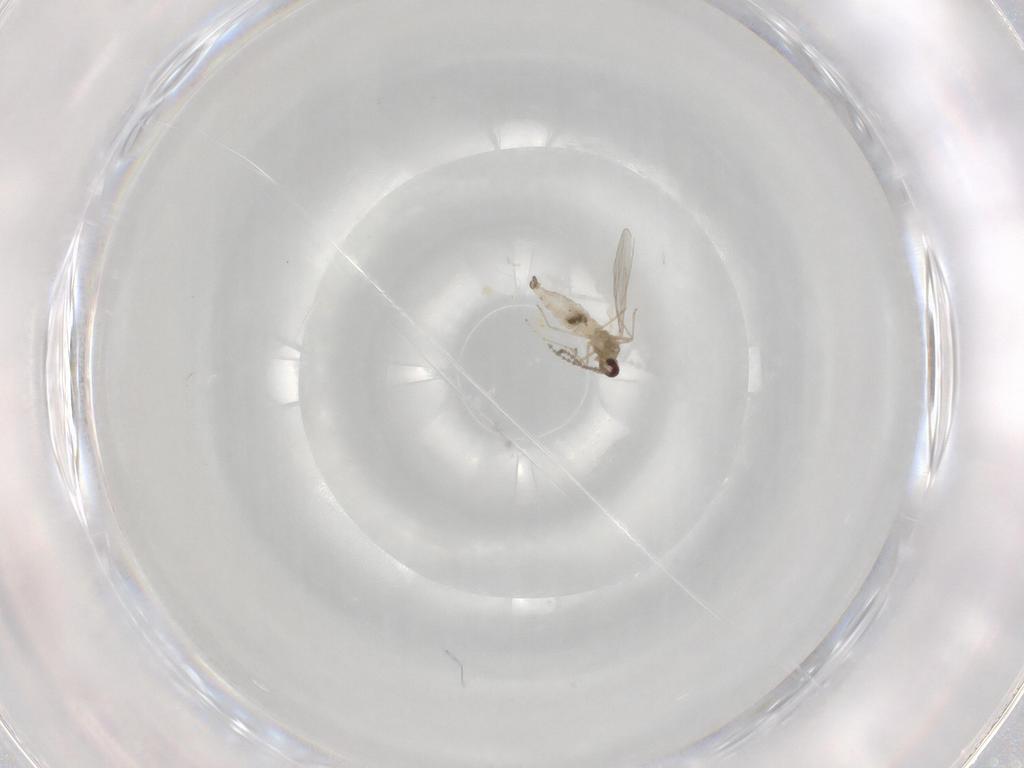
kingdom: Animalia
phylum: Arthropoda
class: Insecta
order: Diptera
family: Cecidomyiidae
